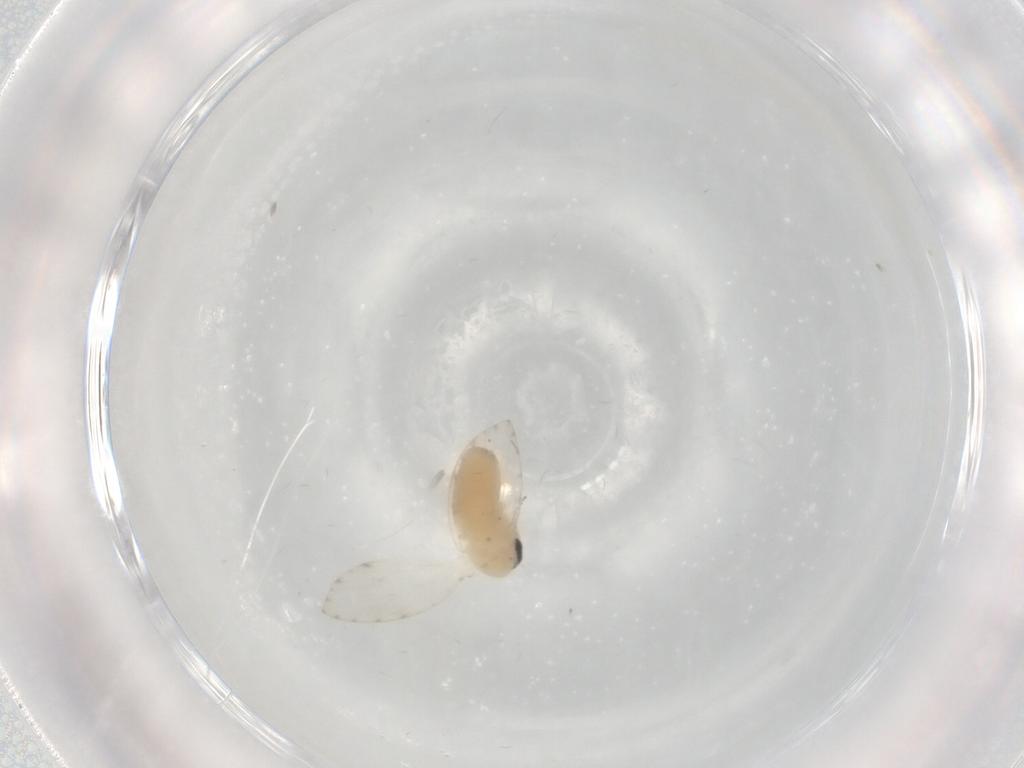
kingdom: Animalia
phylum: Arthropoda
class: Insecta
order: Diptera
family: Psychodidae
